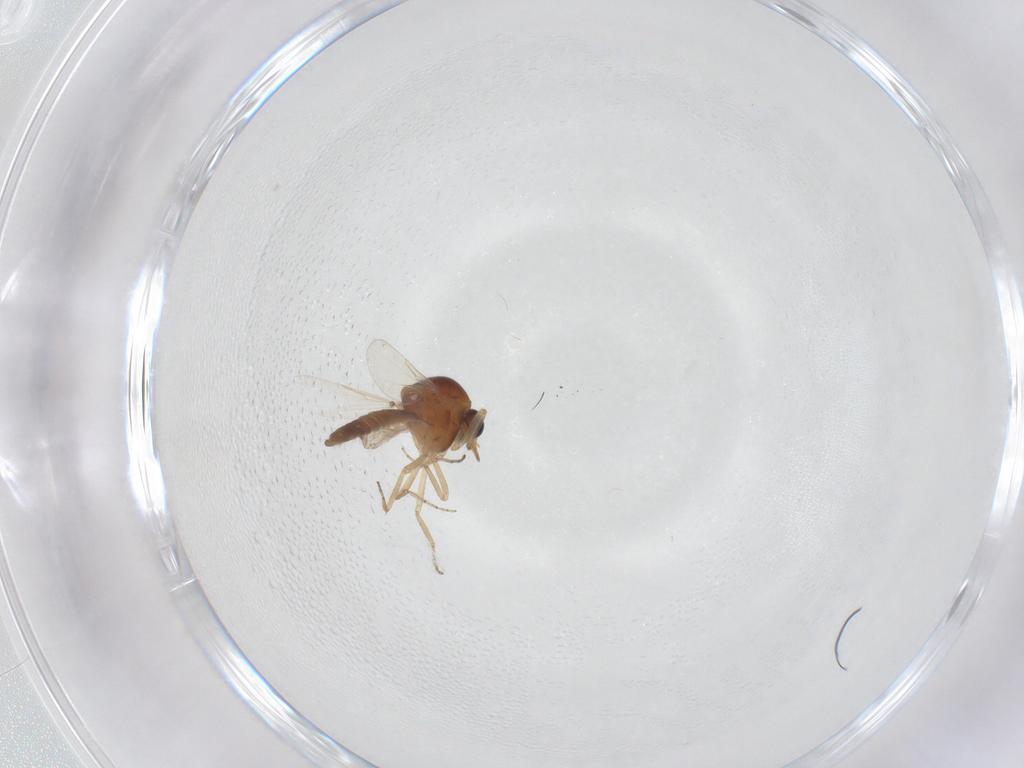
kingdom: Animalia
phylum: Arthropoda
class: Insecta
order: Diptera
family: Ceratopogonidae
